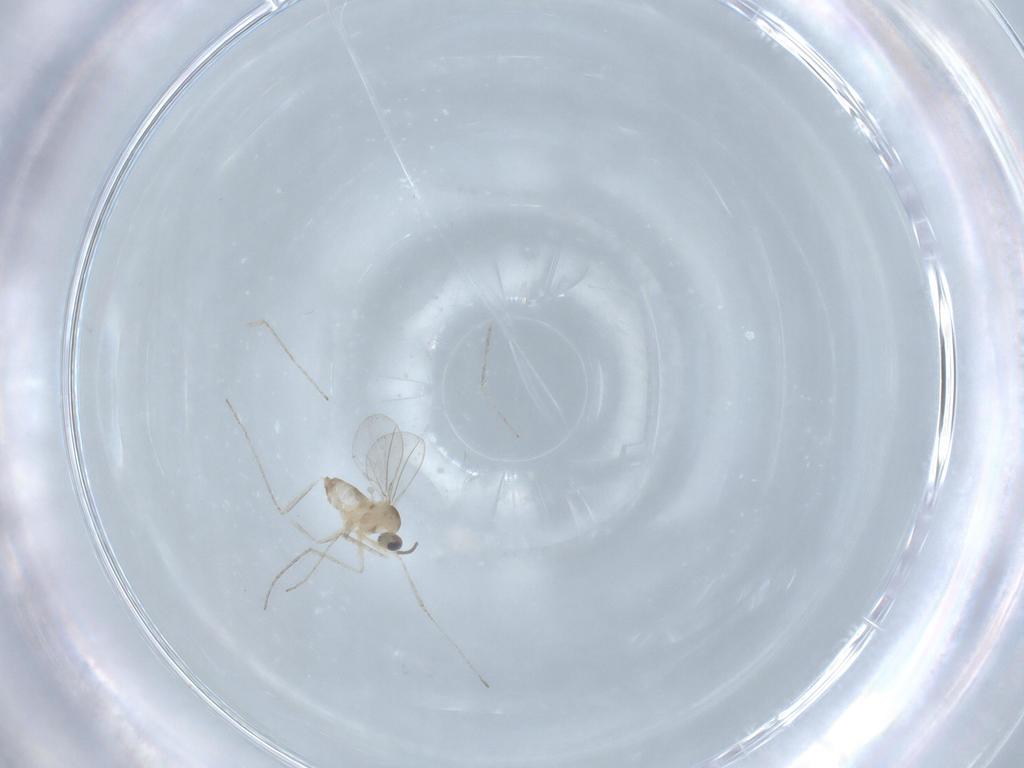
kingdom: Animalia
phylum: Arthropoda
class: Insecta
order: Diptera
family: Cecidomyiidae
